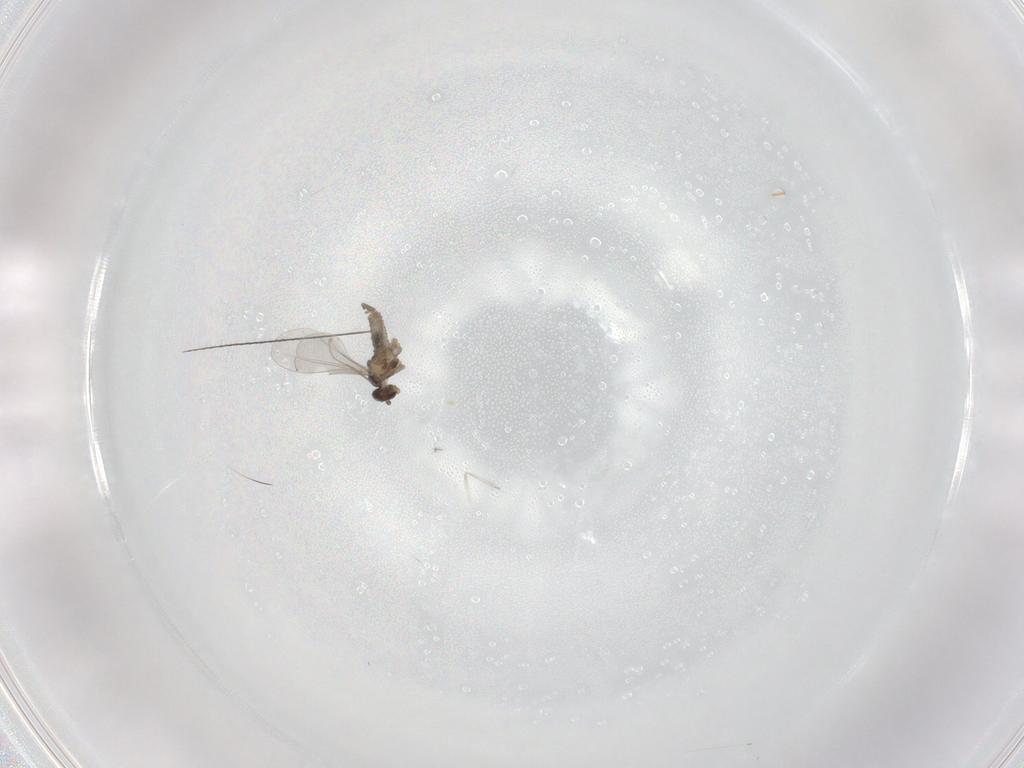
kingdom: Animalia
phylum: Arthropoda
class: Insecta
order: Diptera
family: Cecidomyiidae
